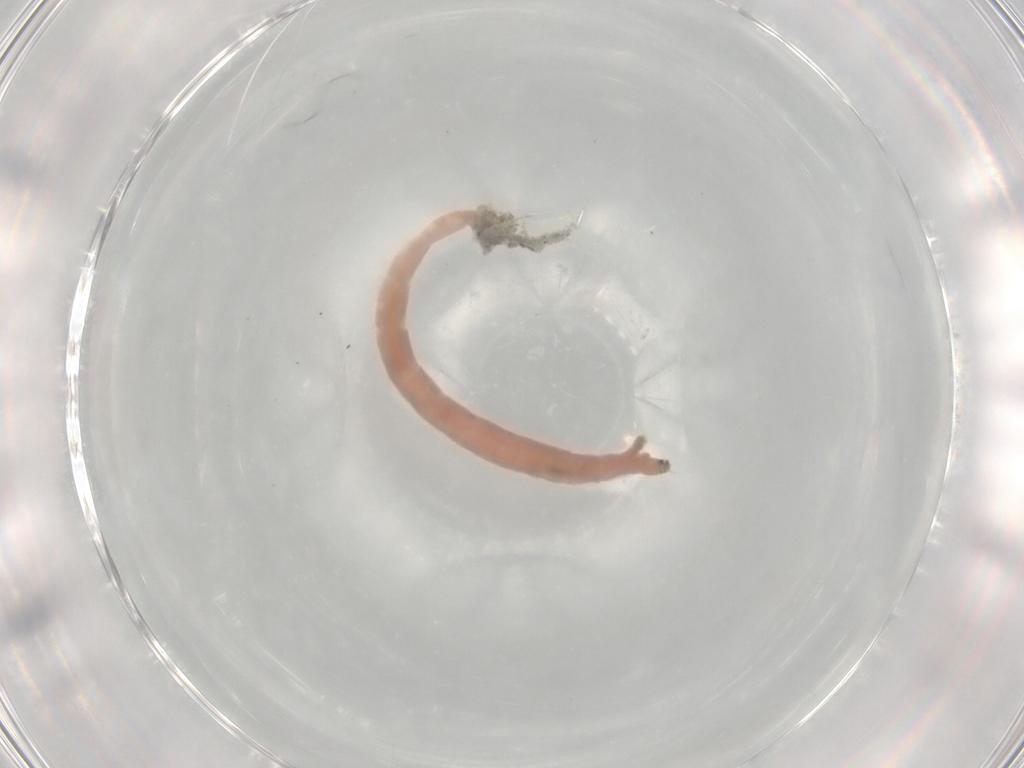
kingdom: Animalia
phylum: Arthropoda
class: Insecta
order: Diptera
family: Chironomidae
